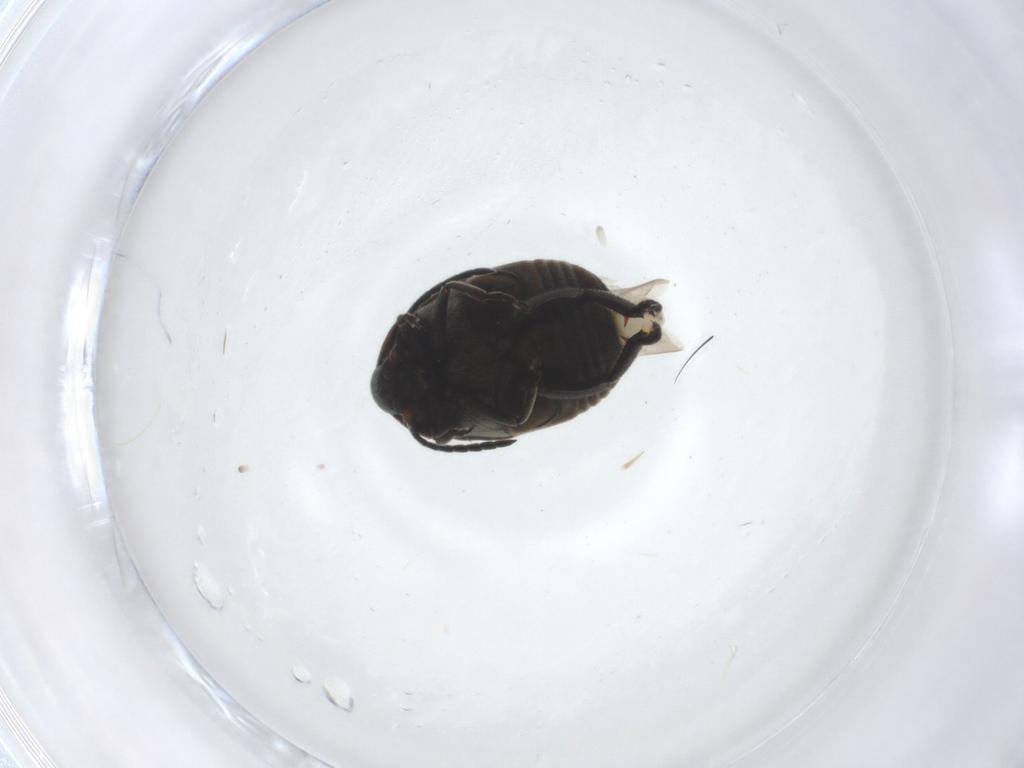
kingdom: Animalia
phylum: Arthropoda
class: Insecta
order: Coleoptera
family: Chrysomelidae
